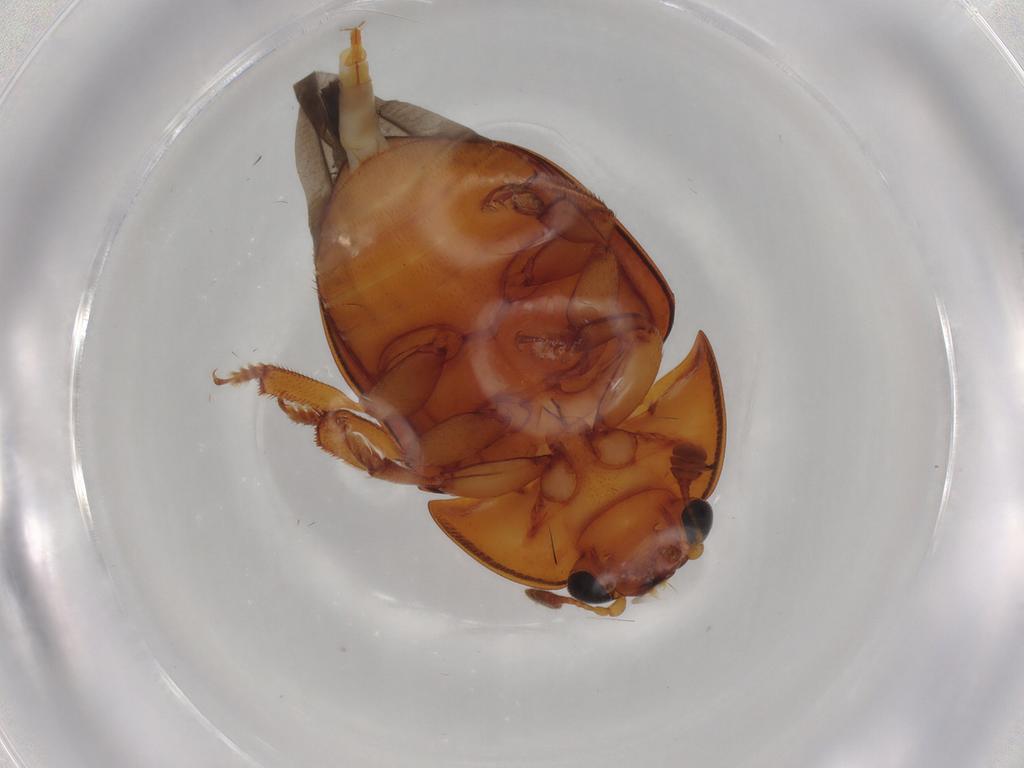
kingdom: Animalia
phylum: Arthropoda
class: Insecta
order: Coleoptera
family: Nitidulidae
